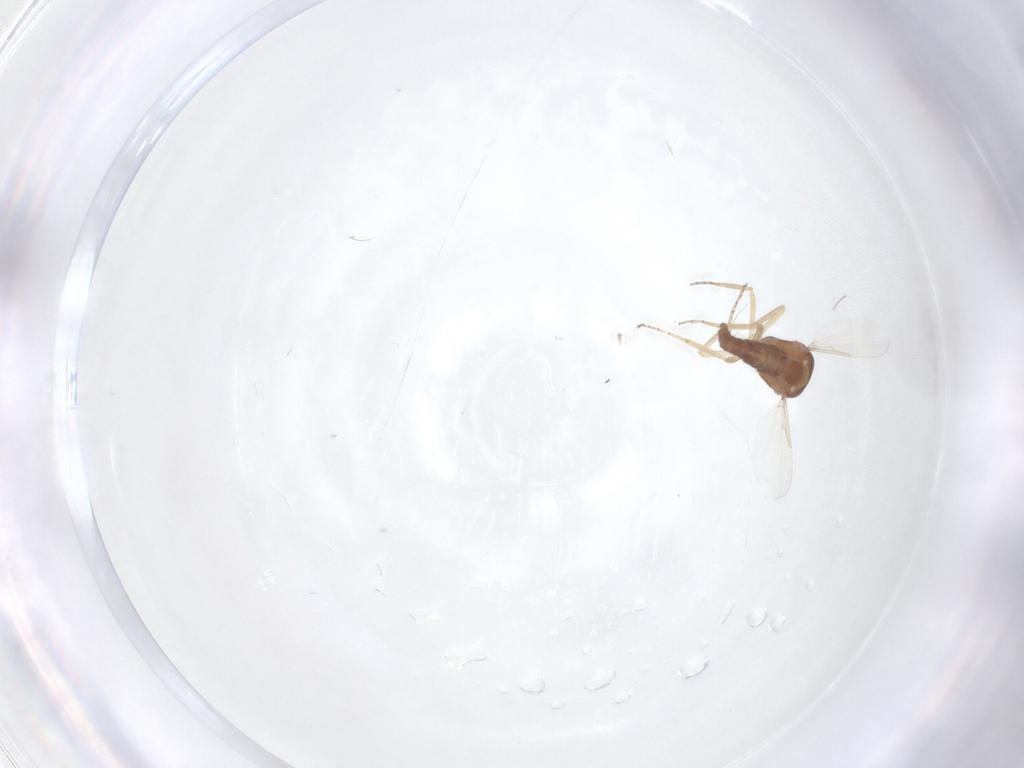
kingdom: Animalia
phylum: Arthropoda
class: Insecta
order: Diptera
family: Ceratopogonidae
